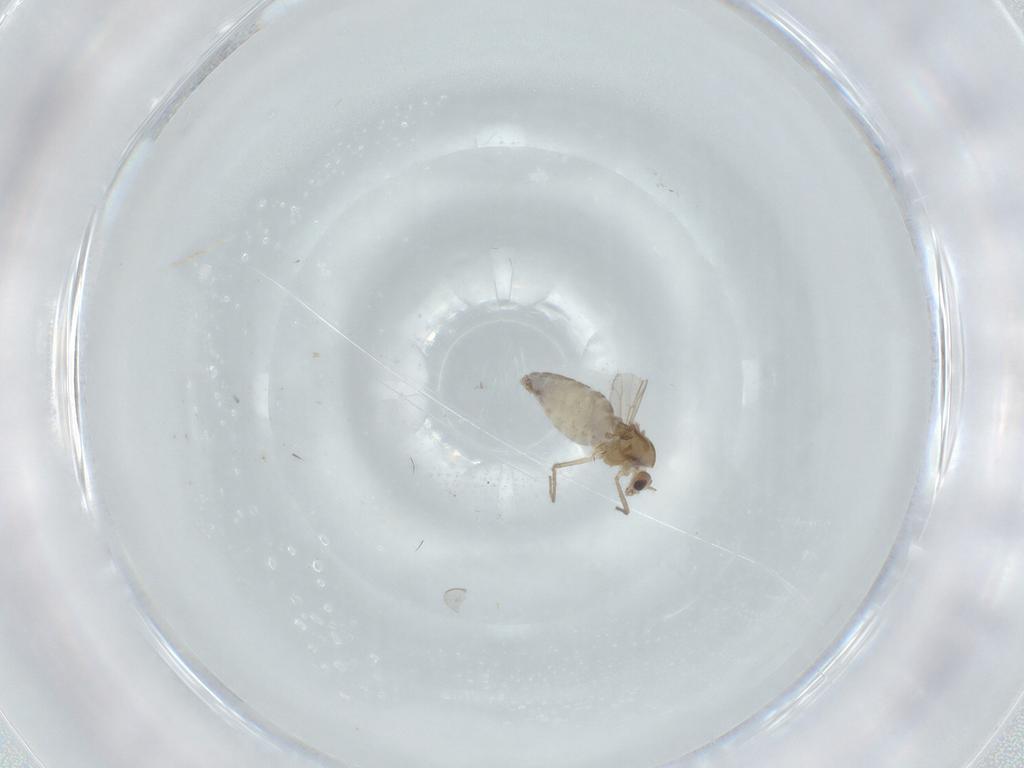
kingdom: Animalia
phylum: Arthropoda
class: Insecta
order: Diptera
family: Chironomidae
